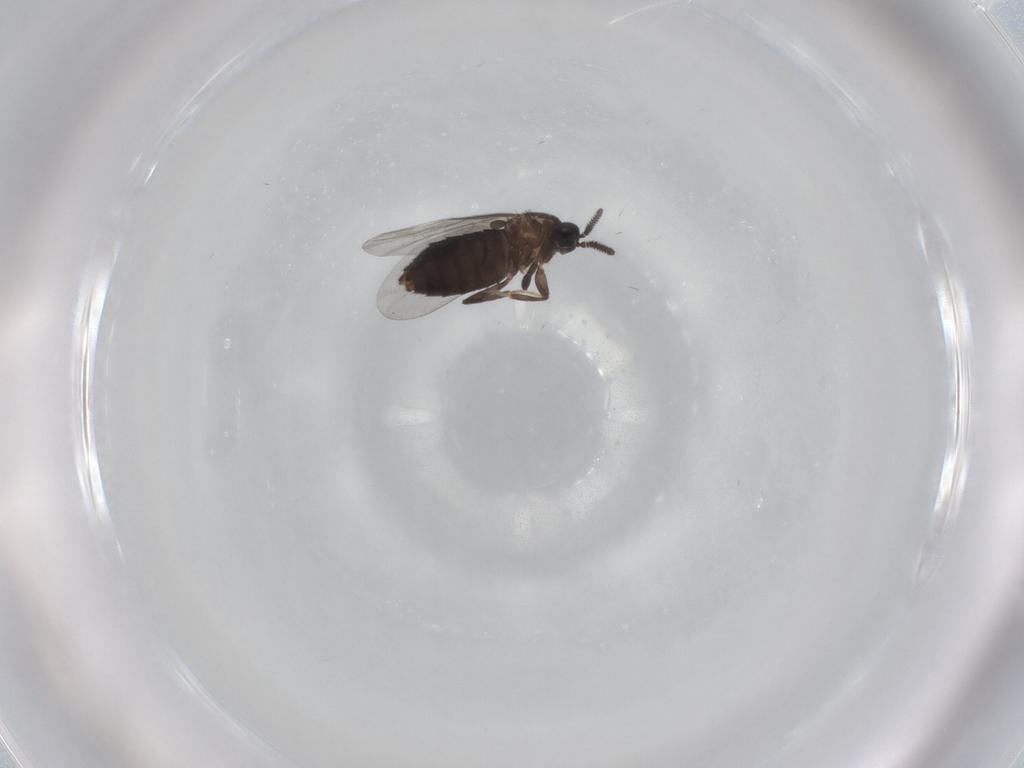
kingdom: Animalia
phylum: Arthropoda
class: Insecta
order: Diptera
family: Scatopsidae
